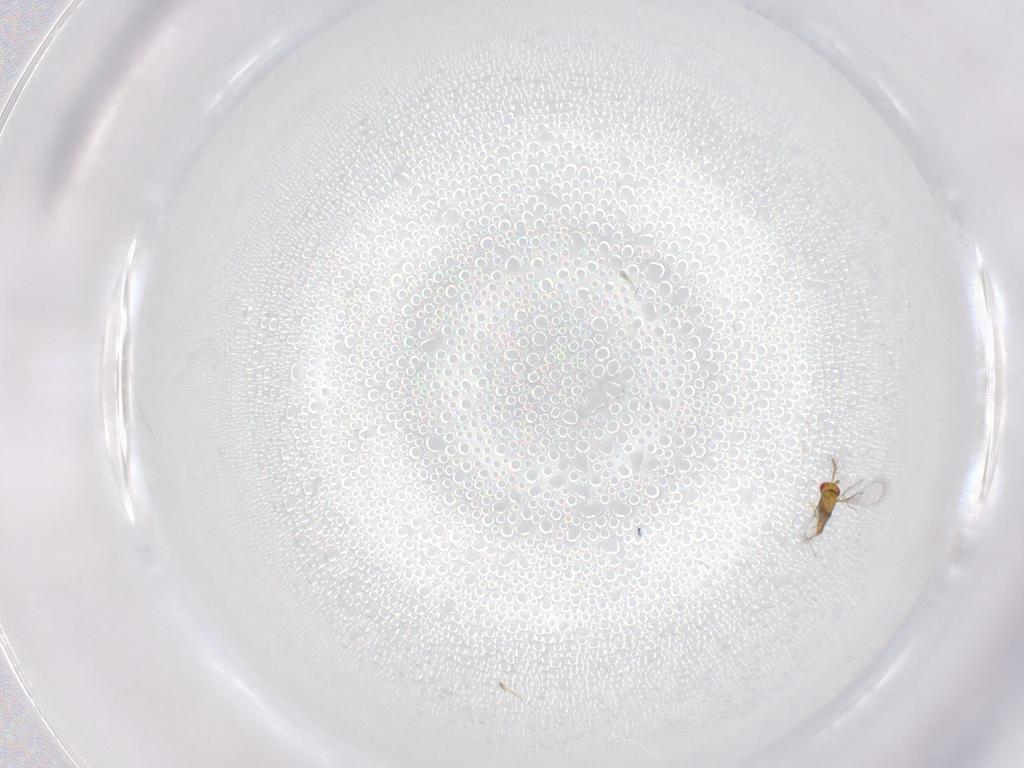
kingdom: Animalia
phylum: Arthropoda
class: Insecta
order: Hymenoptera
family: Trichogrammatidae
